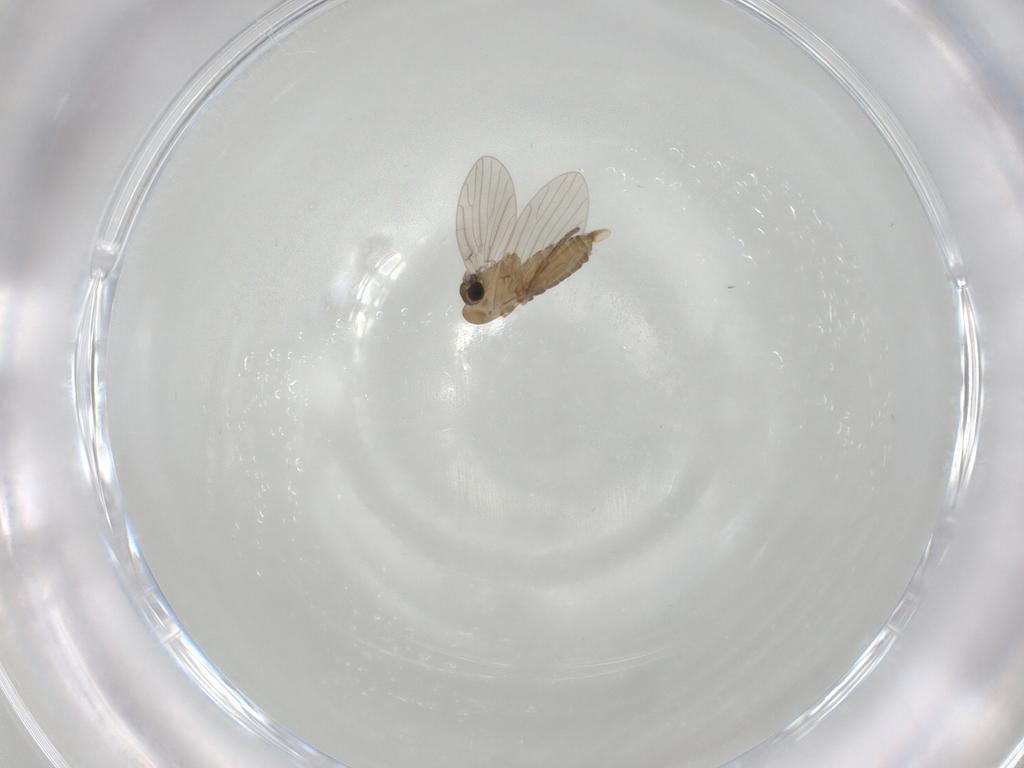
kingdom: Animalia
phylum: Arthropoda
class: Insecta
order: Diptera
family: Psychodidae
